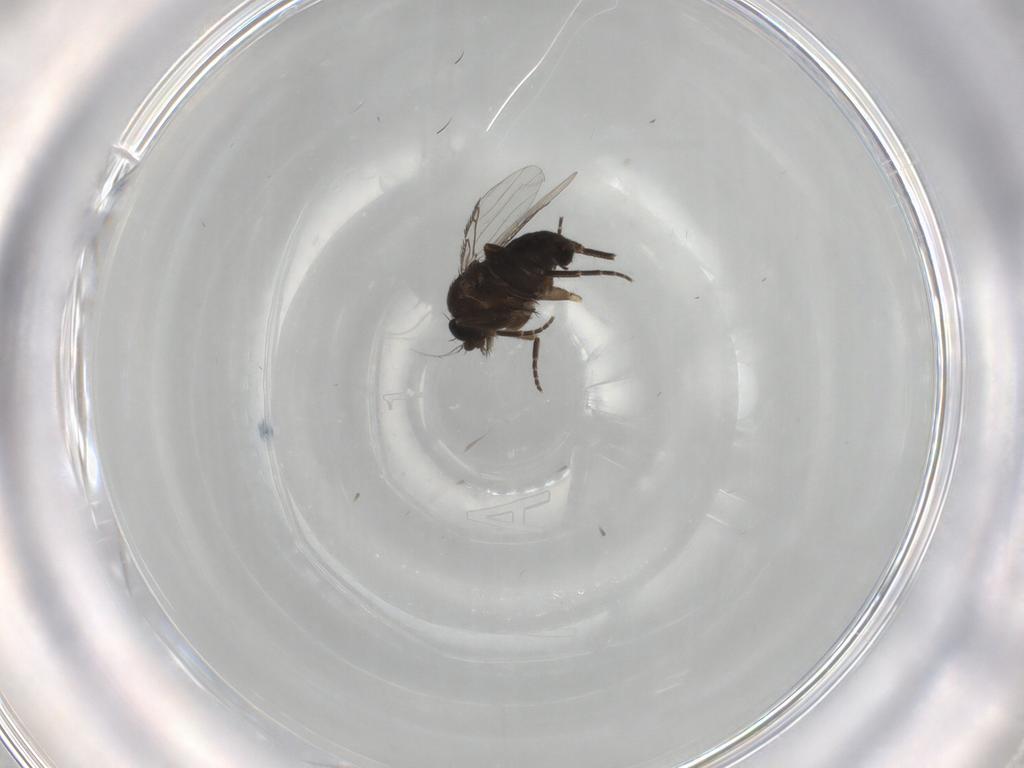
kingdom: Animalia
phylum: Arthropoda
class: Insecta
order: Diptera
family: Phoridae
